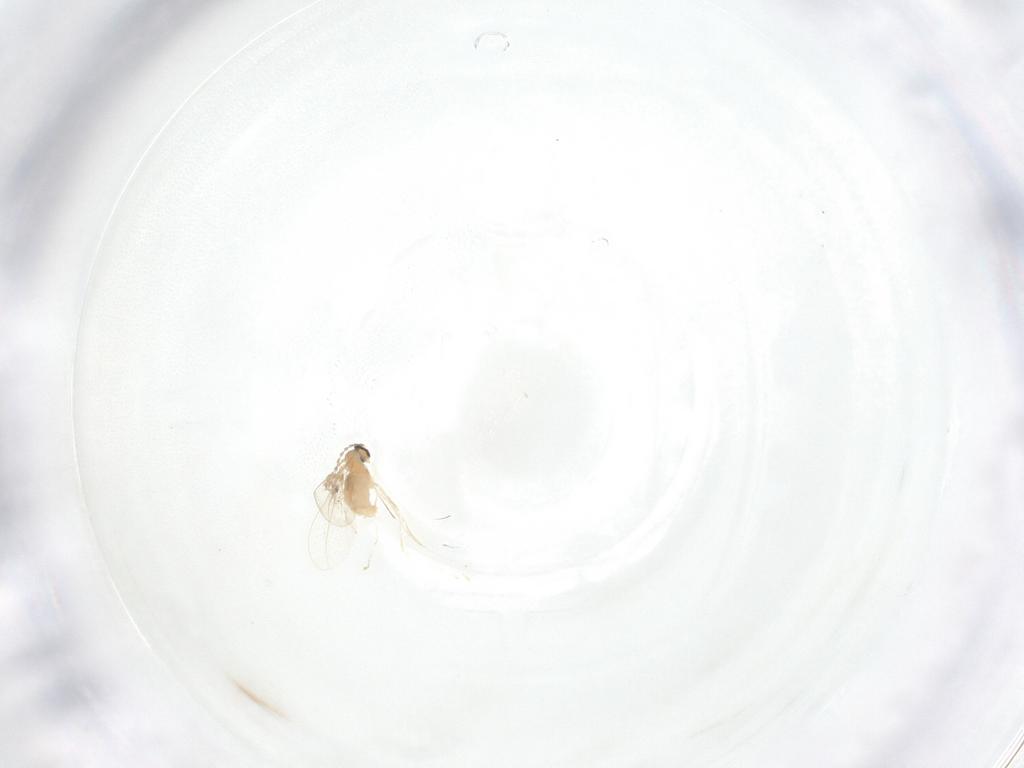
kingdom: Animalia
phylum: Arthropoda
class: Insecta
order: Diptera
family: Cecidomyiidae
